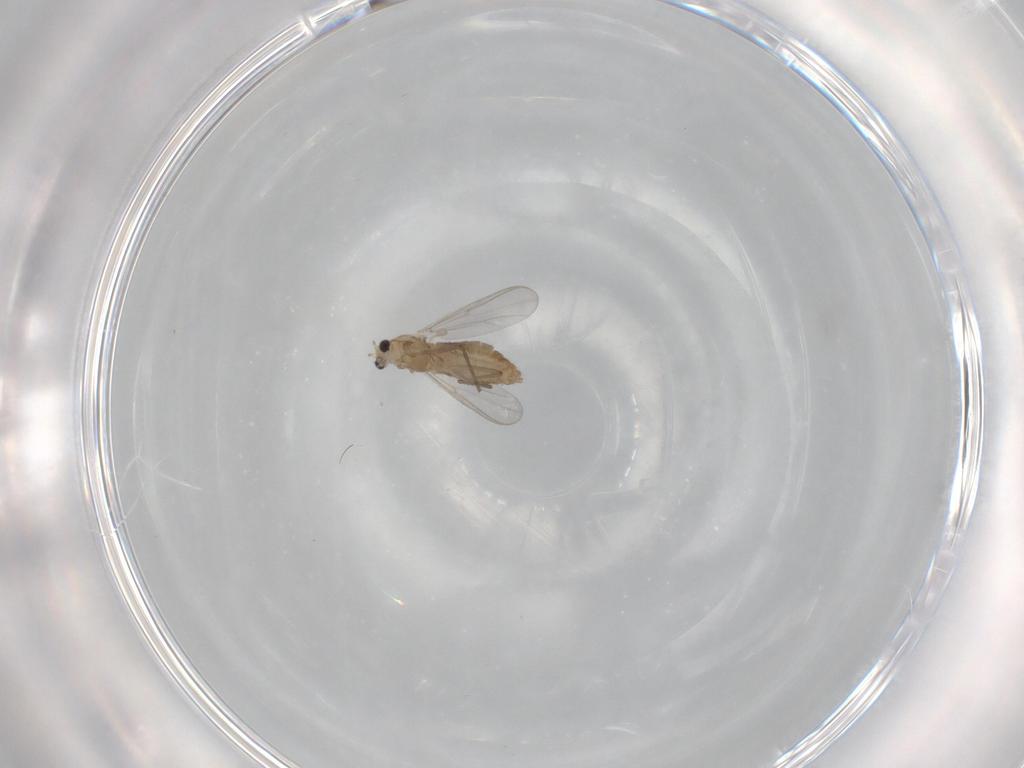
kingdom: Animalia
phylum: Arthropoda
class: Insecta
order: Diptera
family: Chironomidae
